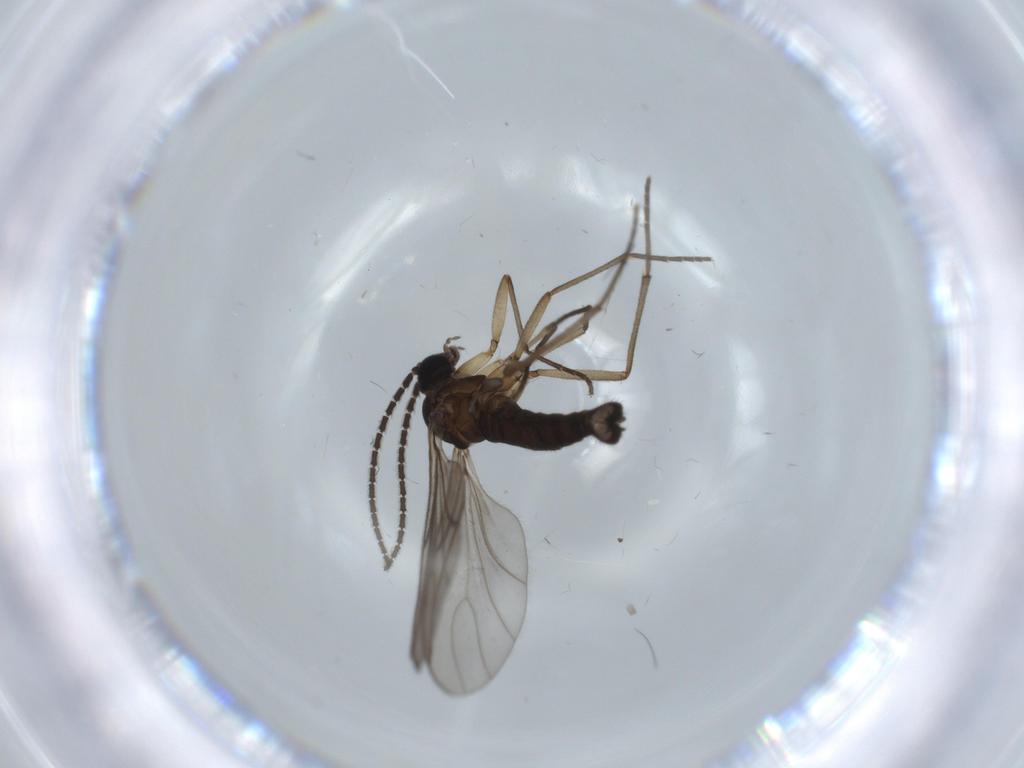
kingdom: Animalia
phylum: Arthropoda
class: Insecta
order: Diptera
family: Sciaridae
